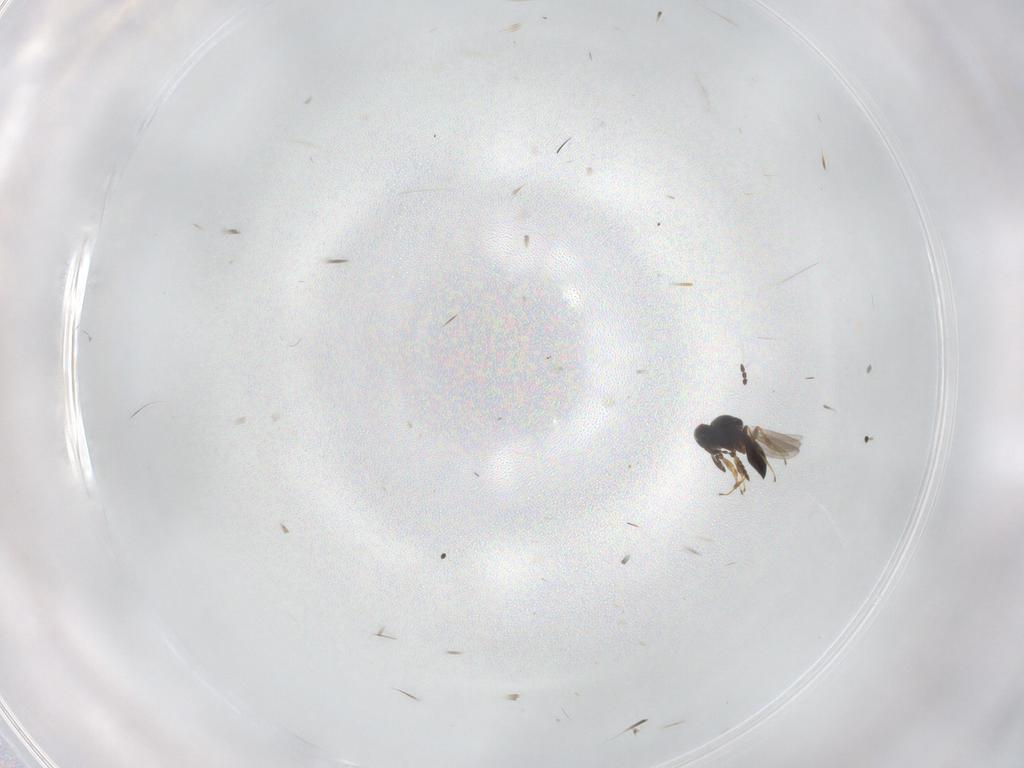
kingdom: Animalia
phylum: Arthropoda
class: Insecta
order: Hymenoptera
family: Platygastridae
